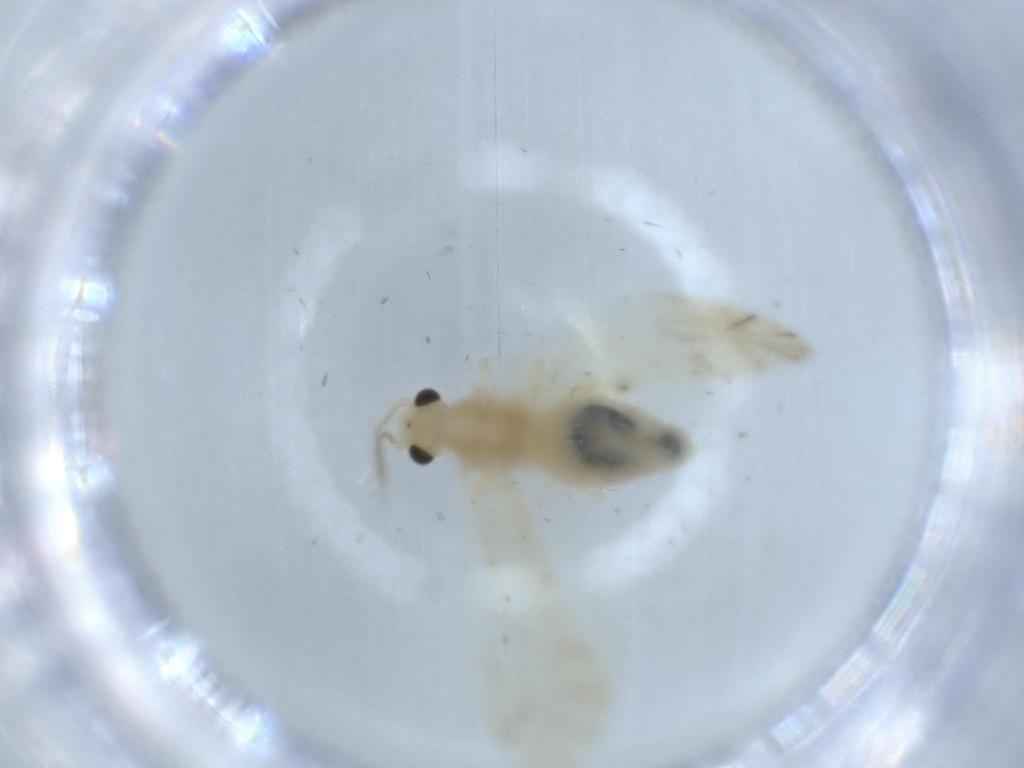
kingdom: Animalia
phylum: Arthropoda
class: Insecta
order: Psocodea
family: Caeciliusidae
